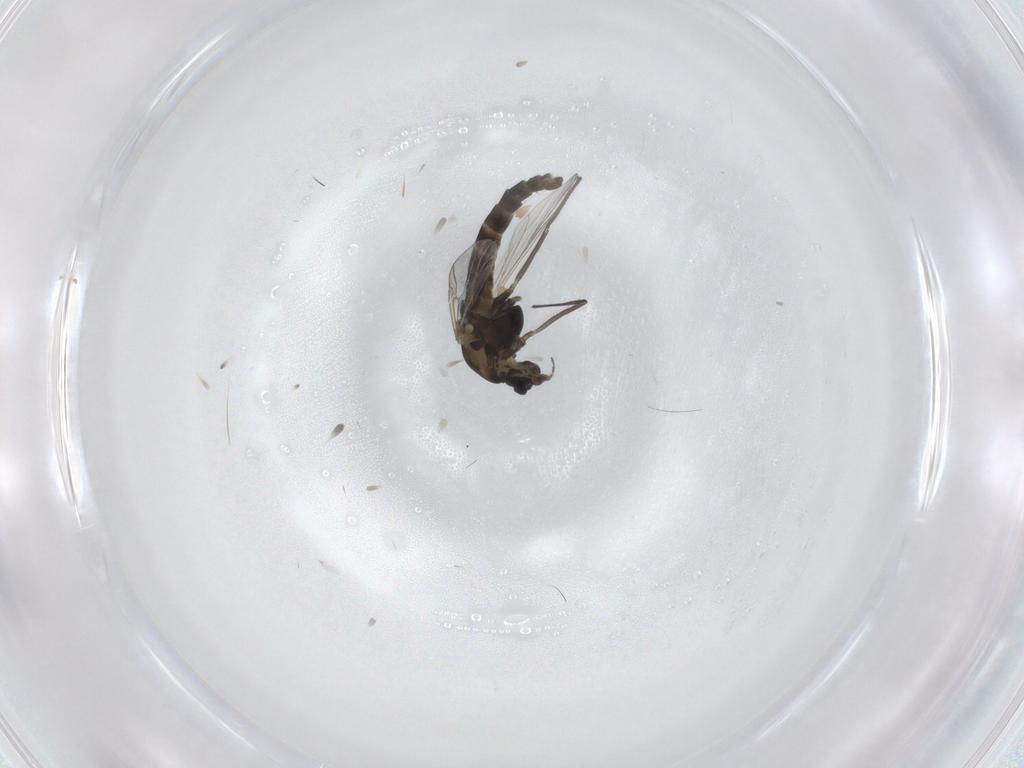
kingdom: Animalia
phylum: Arthropoda
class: Insecta
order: Diptera
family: Chironomidae
